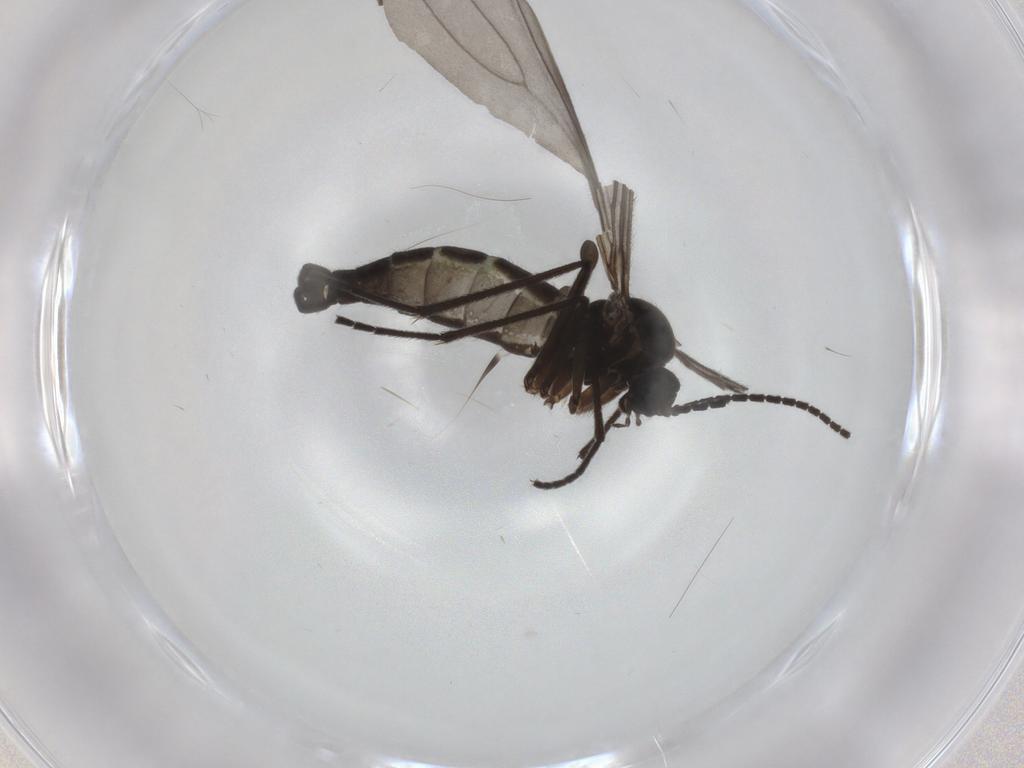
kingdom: Animalia
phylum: Arthropoda
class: Insecta
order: Diptera
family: Sciaridae
